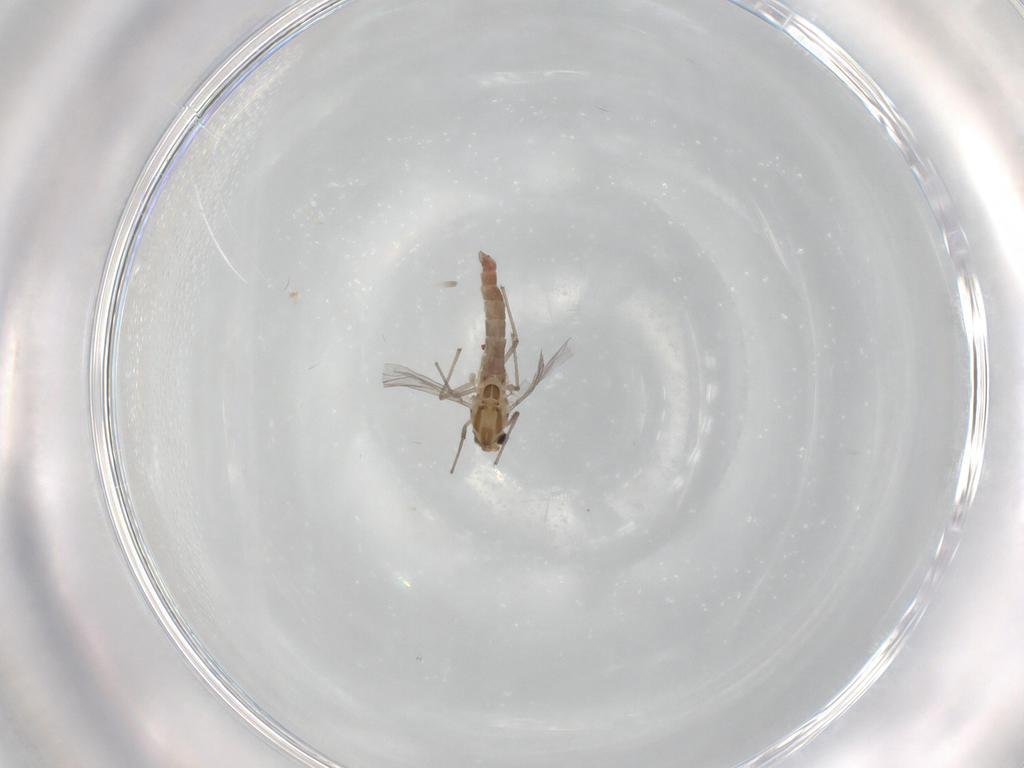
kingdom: Animalia
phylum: Arthropoda
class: Insecta
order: Diptera
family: Chironomidae
